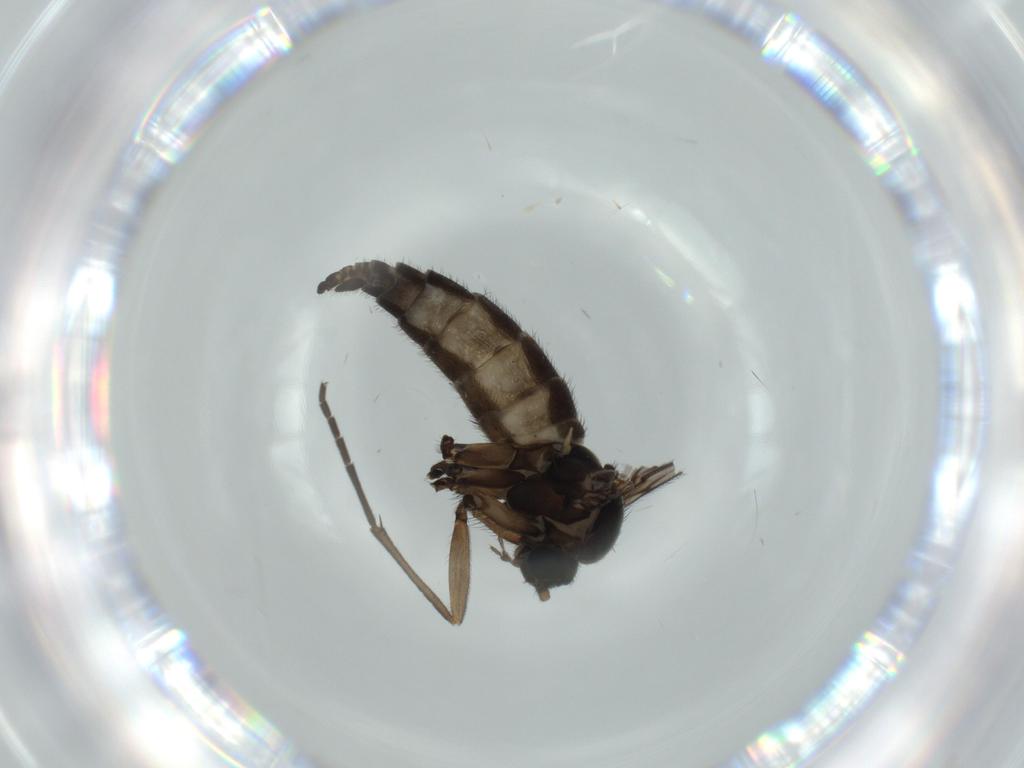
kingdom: Animalia
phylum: Arthropoda
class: Insecta
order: Diptera
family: Sciaridae
